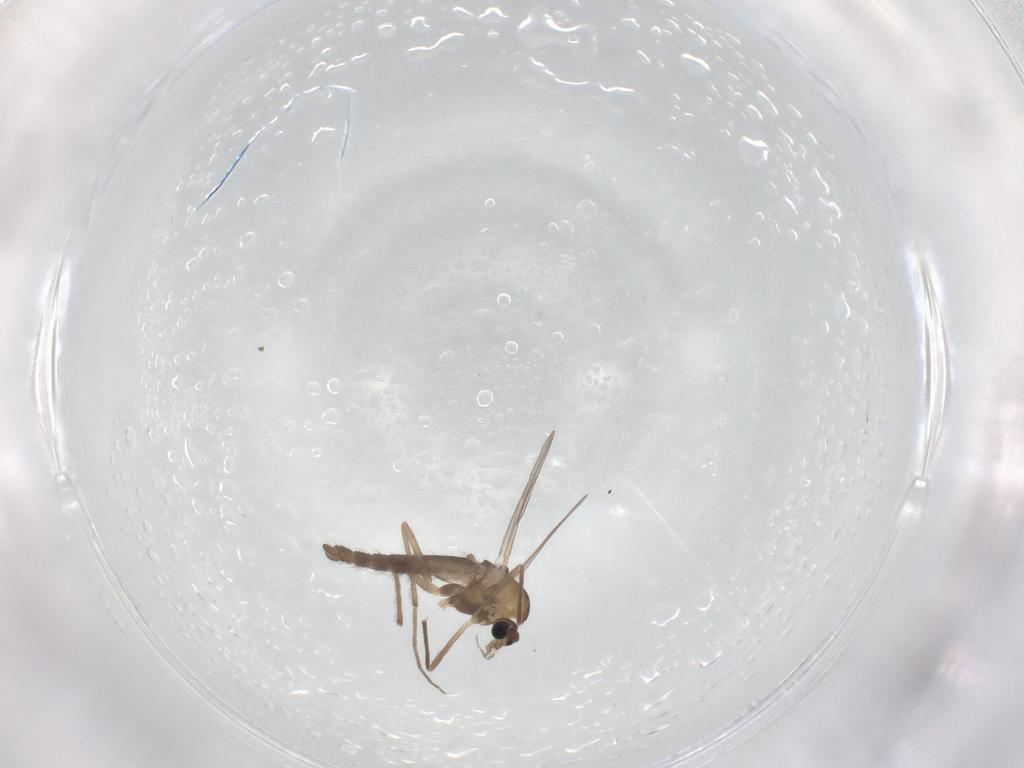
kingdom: Animalia
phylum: Arthropoda
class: Insecta
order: Diptera
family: Chironomidae
